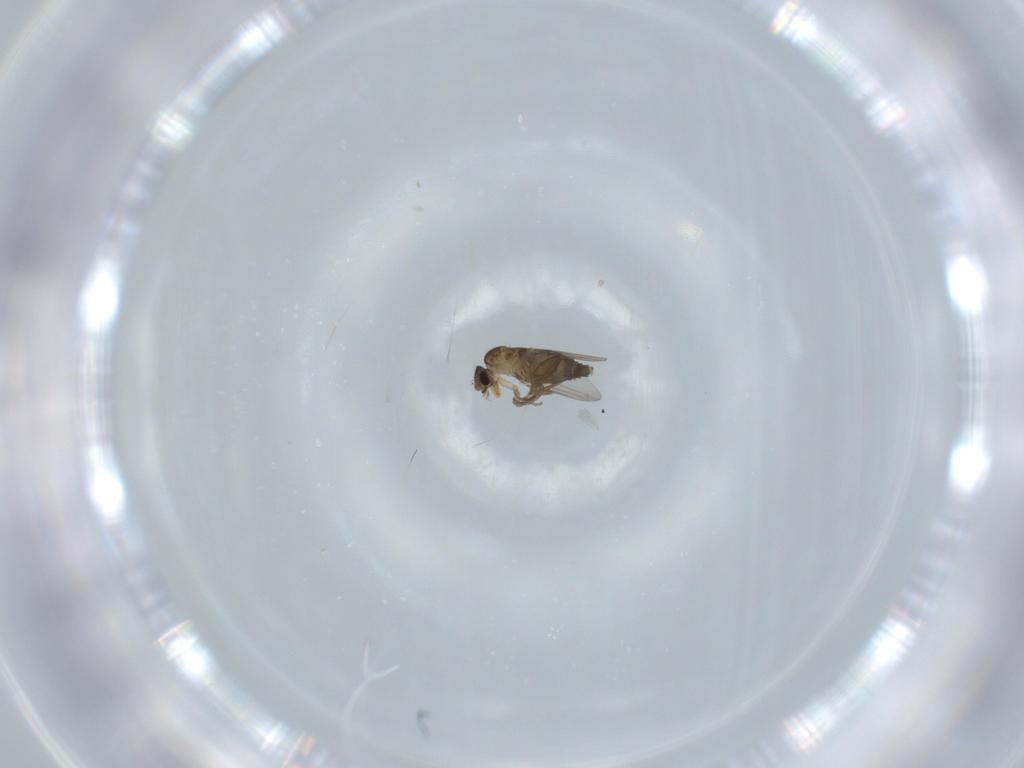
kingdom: Animalia
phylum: Arthropoda
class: Insecta
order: Diptera
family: Phoridae
